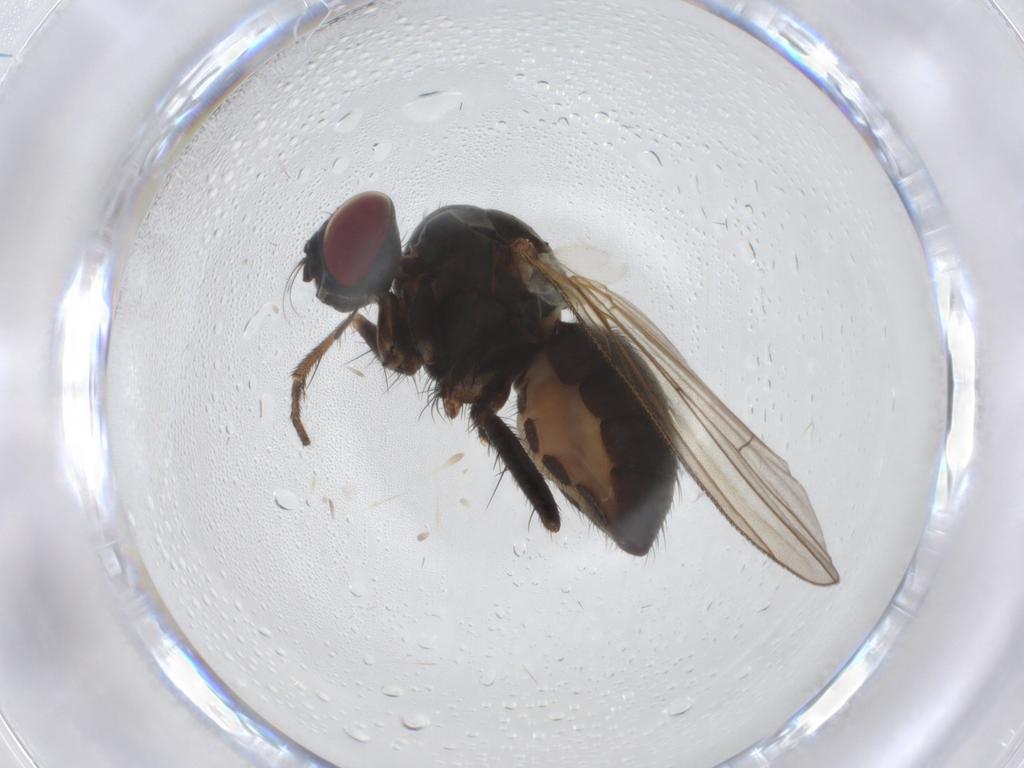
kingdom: Animalia
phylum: Arthropoda
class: Insecta
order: Diptera
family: Muscidae
